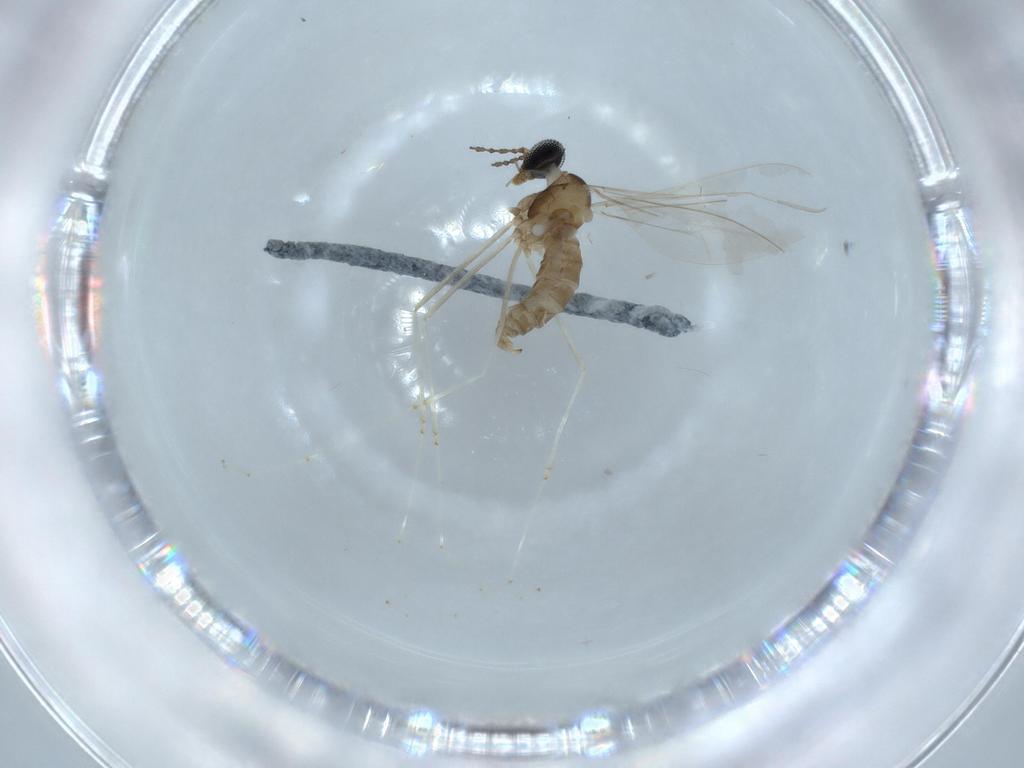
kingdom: Animalia
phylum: Arthropoda
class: Insecta
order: Diptera
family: Cecidomyiidae
